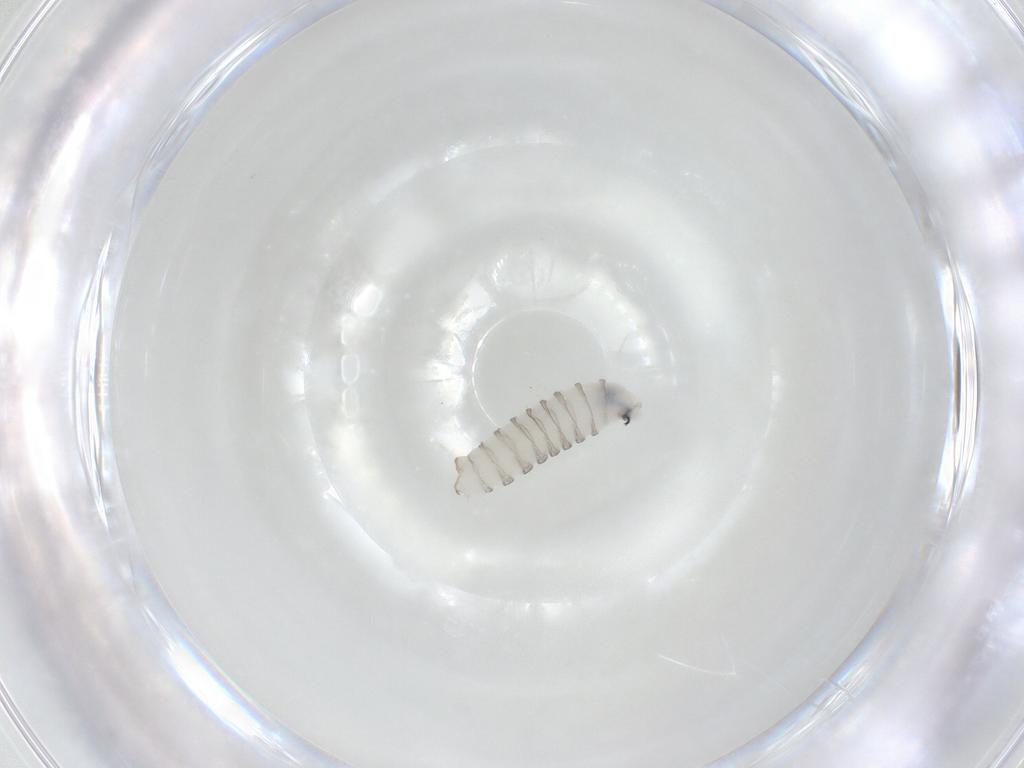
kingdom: Animalia
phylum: Arthropoda
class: Insecta
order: Diptera
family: Sarcophagidae
